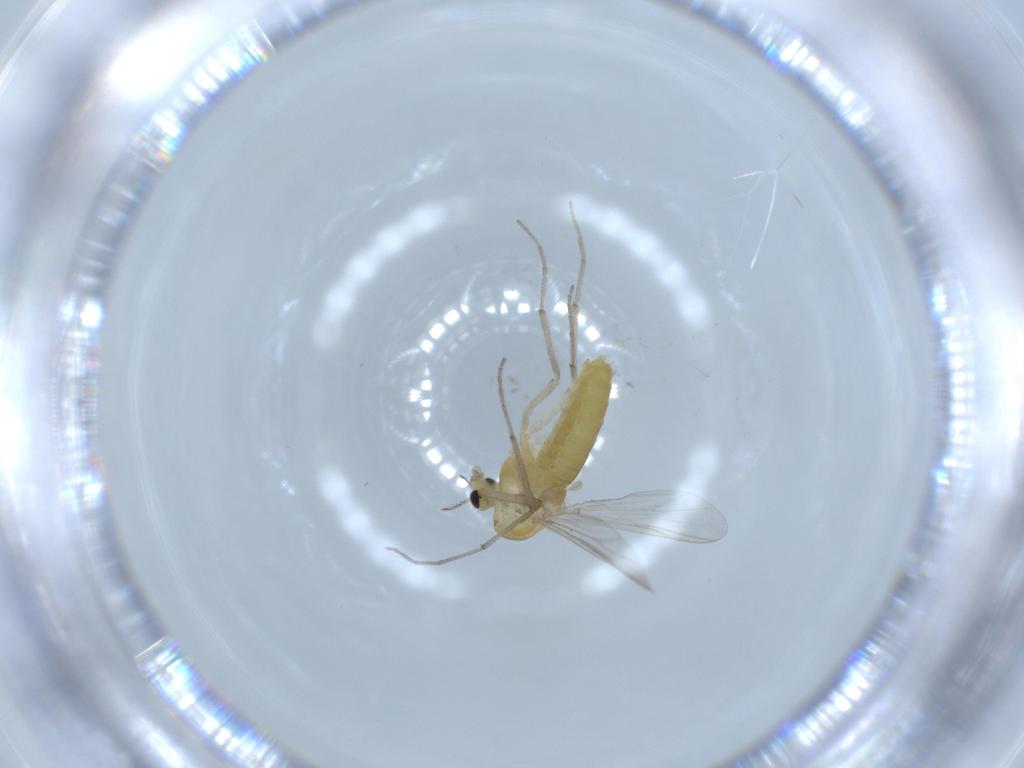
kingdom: Animalia
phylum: Arthropoda
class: Insecta
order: Diptera
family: Chironomidae
